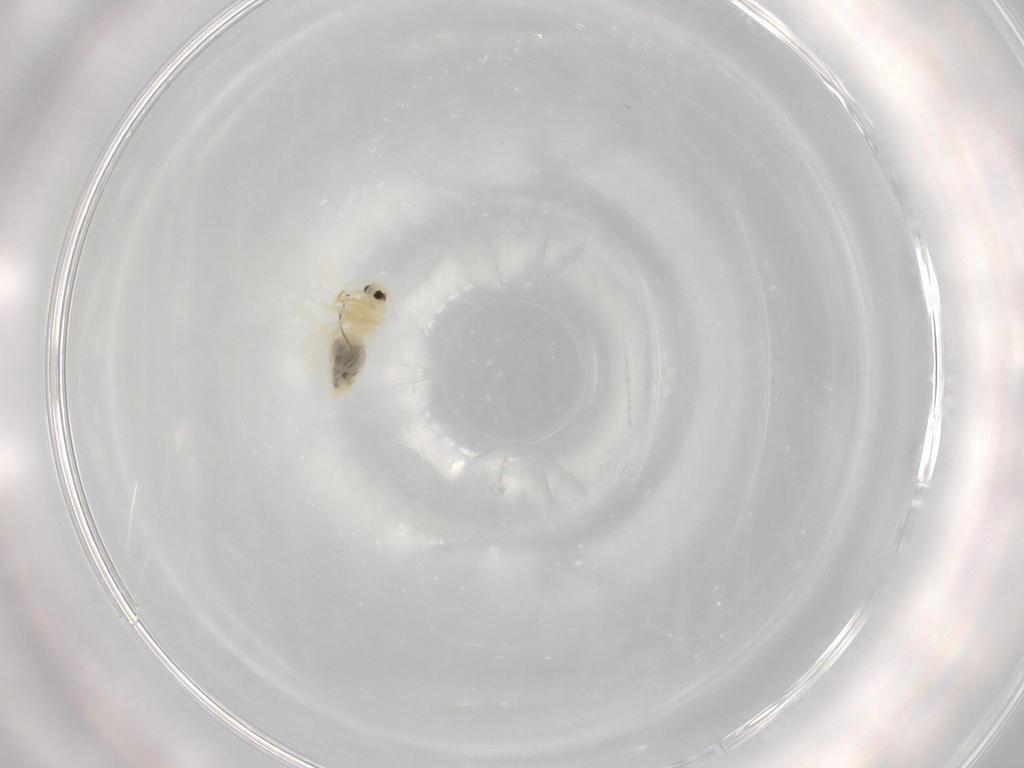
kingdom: Animalia
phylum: Arthropoda
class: Insecta
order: Hemiptera
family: Aleyrodidae
